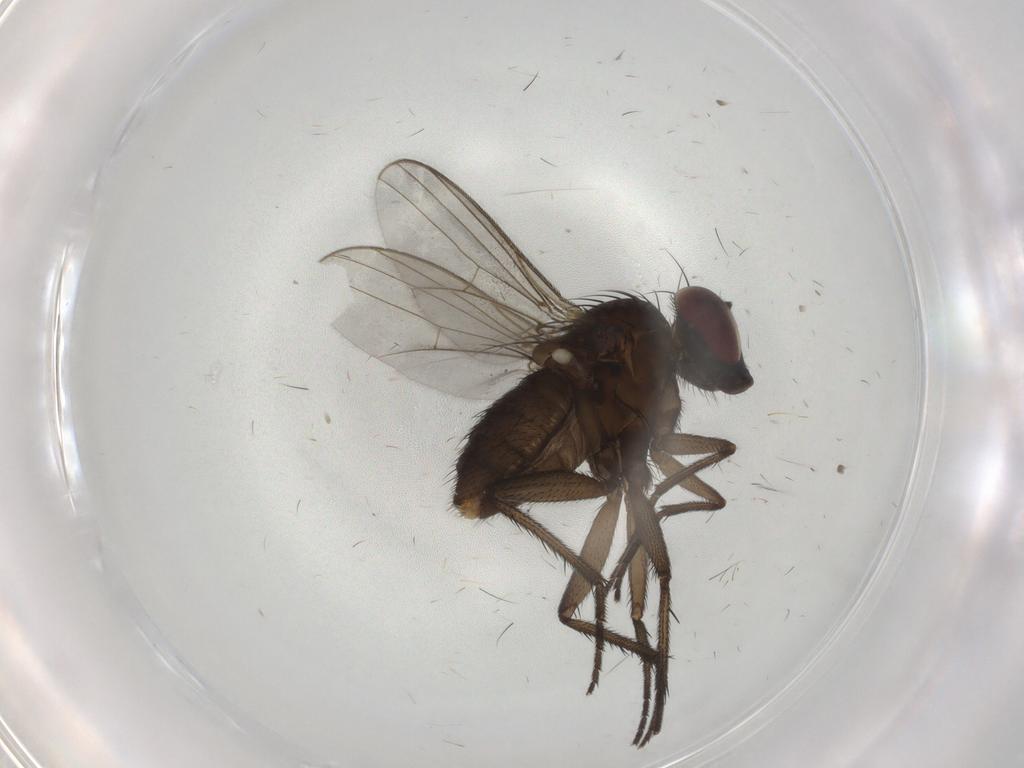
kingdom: Animalia
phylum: Arthropoda
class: Insecta
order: Diptera
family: Dolichopodidae
